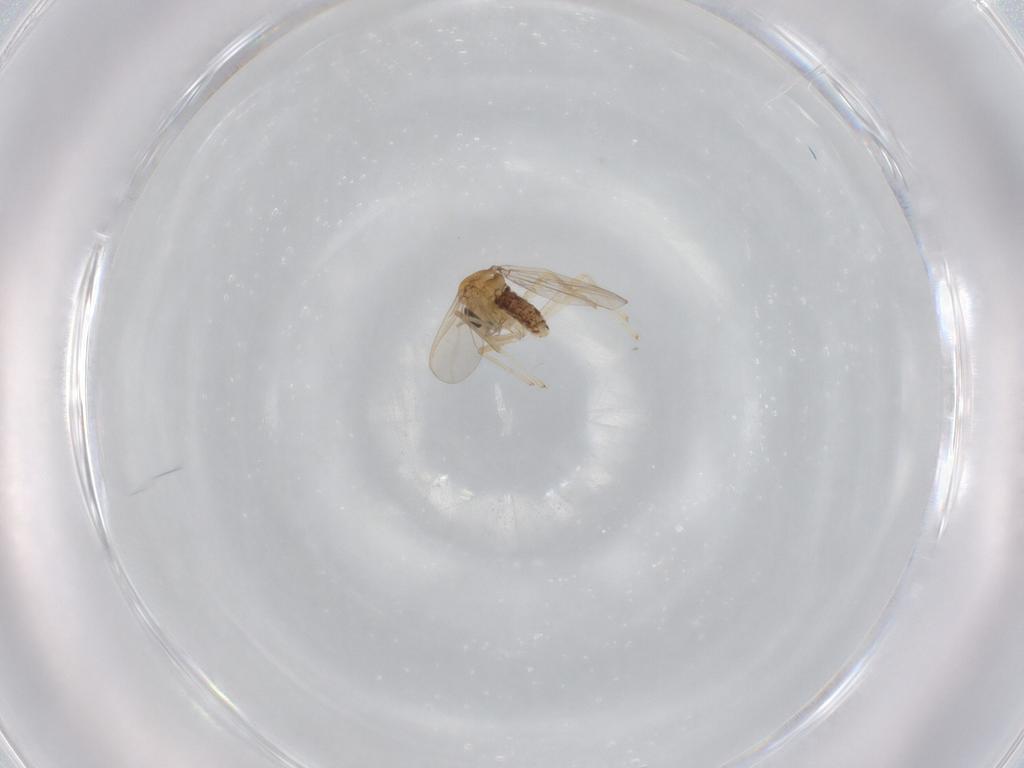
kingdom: Animalia
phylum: Arthropoda
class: Insecta
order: Diptera
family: Chironomidae
